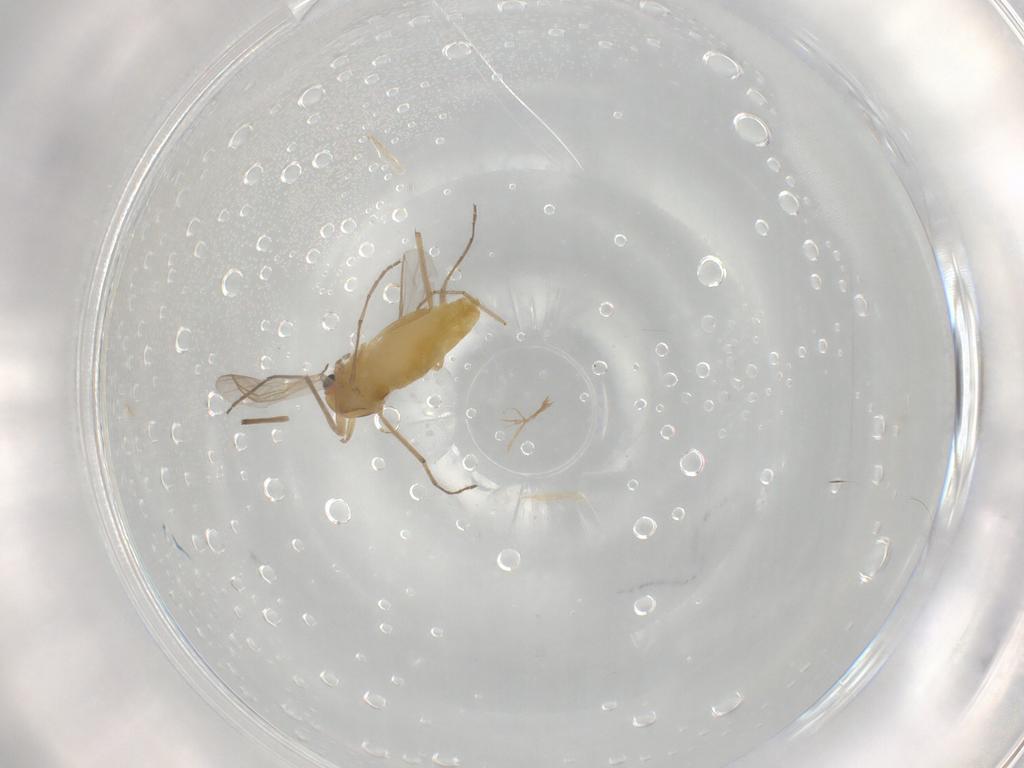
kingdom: Animalia
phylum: Arthropoda
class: Insecta
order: Diptera
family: Chironomidae
